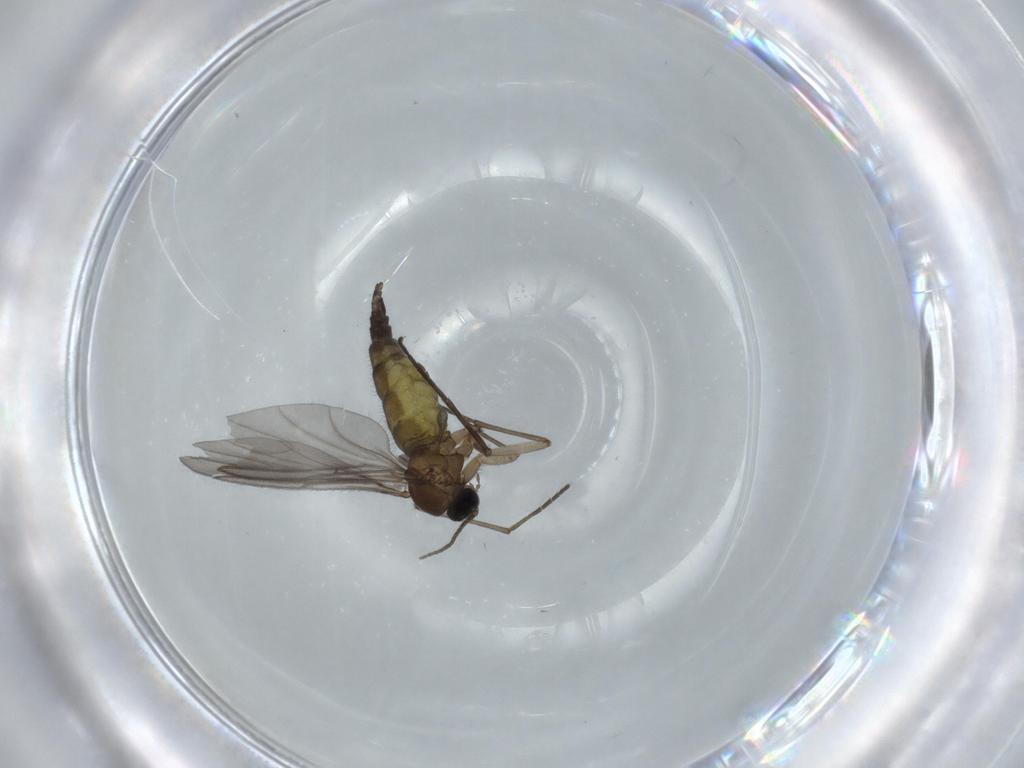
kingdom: Animalia
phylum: Arthropoda
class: Insecta
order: Diptera
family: Sciaridae
